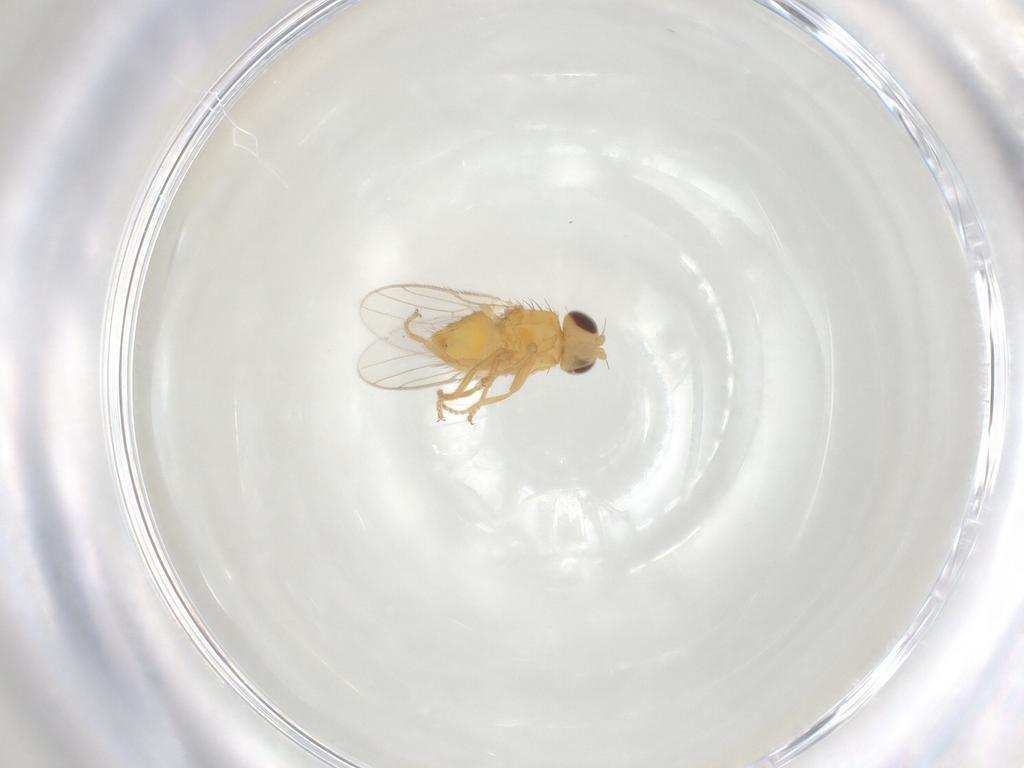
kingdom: Animalia
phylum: Arthropoda
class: Insecta
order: Diptera
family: Chloropidae
